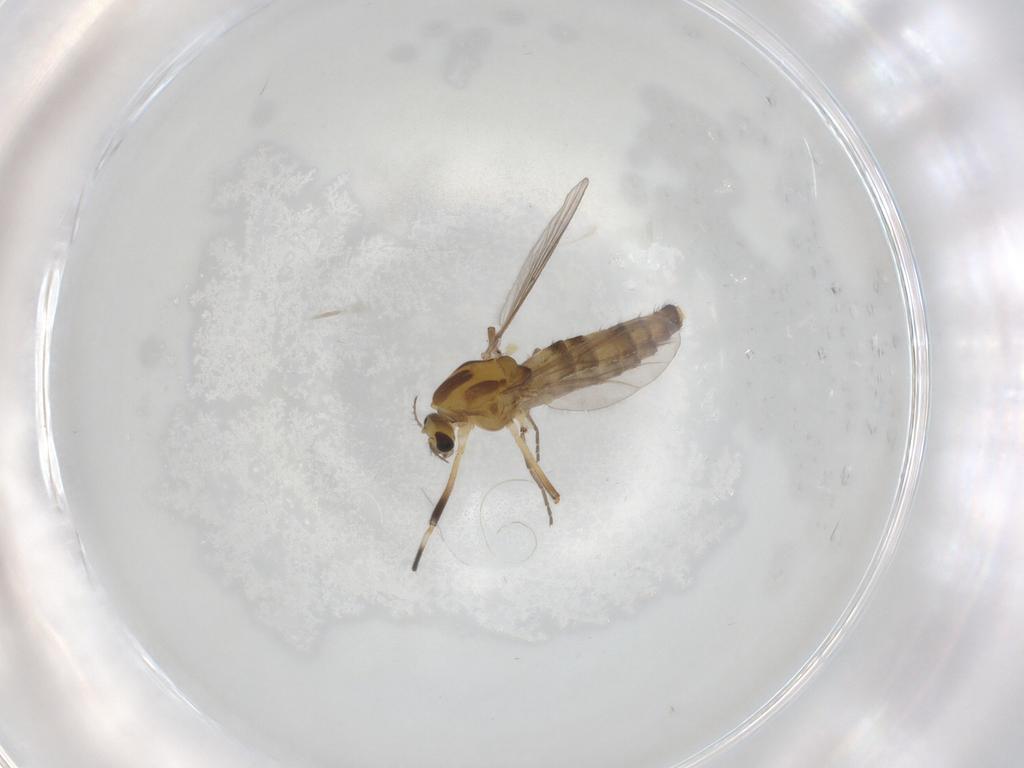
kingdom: Animalia
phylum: Arthropoda
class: Insecta
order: Diptera
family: Chironomidae
